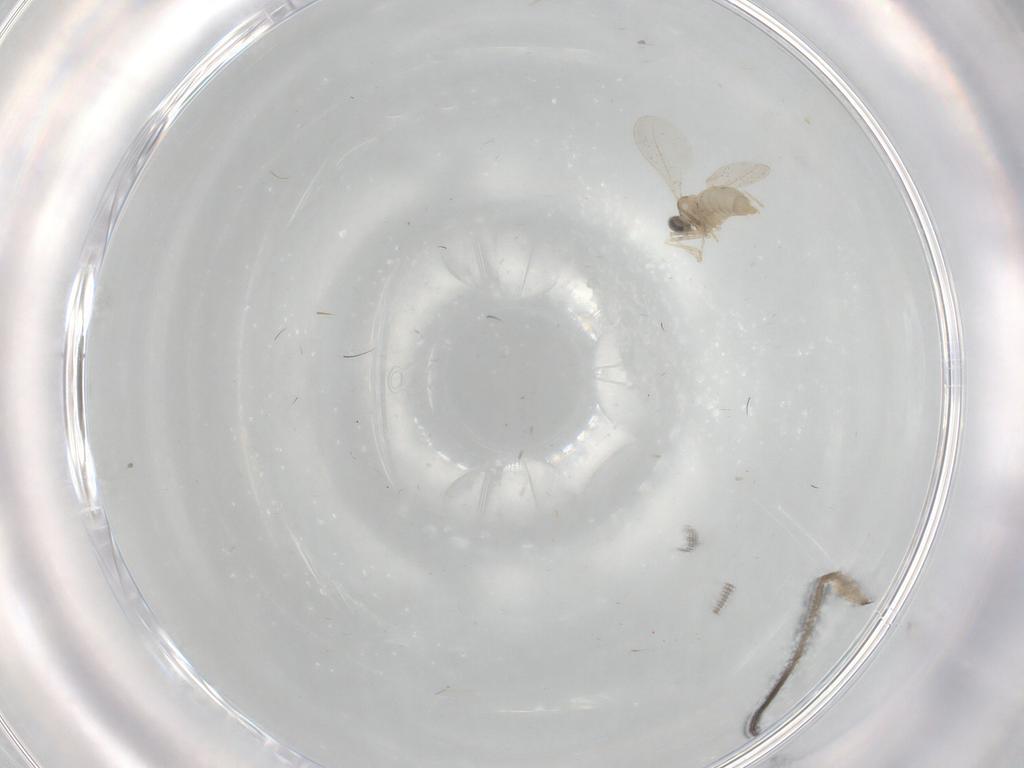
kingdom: Animalia
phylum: Arthropoda
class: Insecta
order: Diptera
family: Cecidomyiidae
